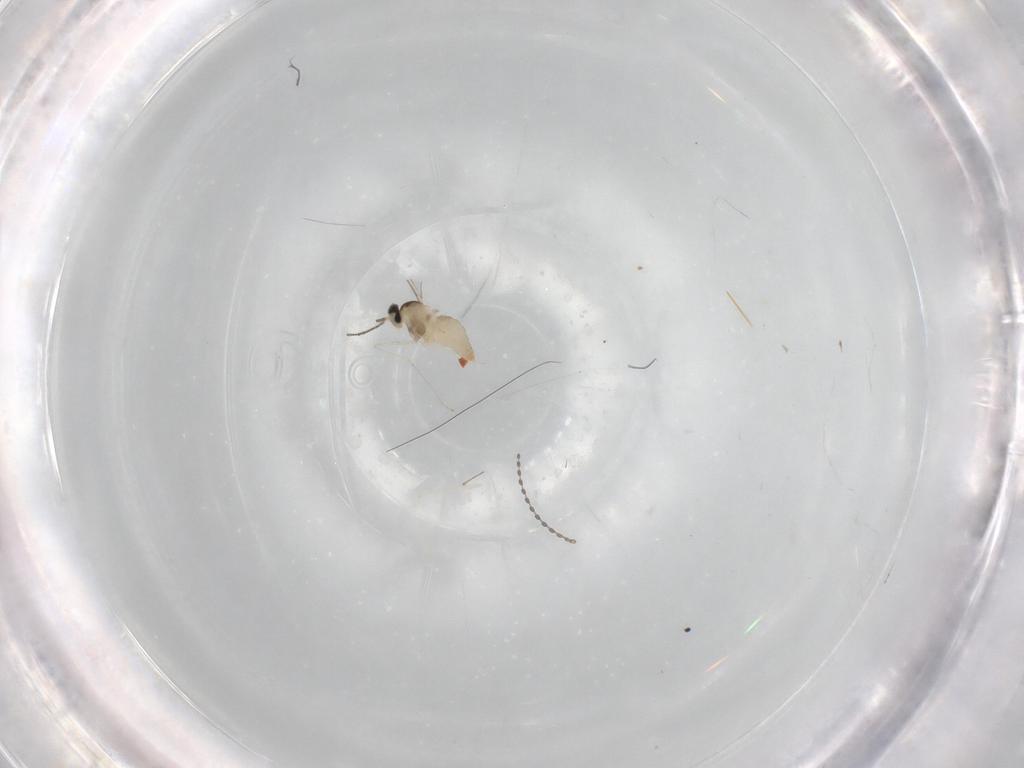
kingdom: Animalia
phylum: Arthropoda
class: Insecta
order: Diptera
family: Cecidomyiidae
